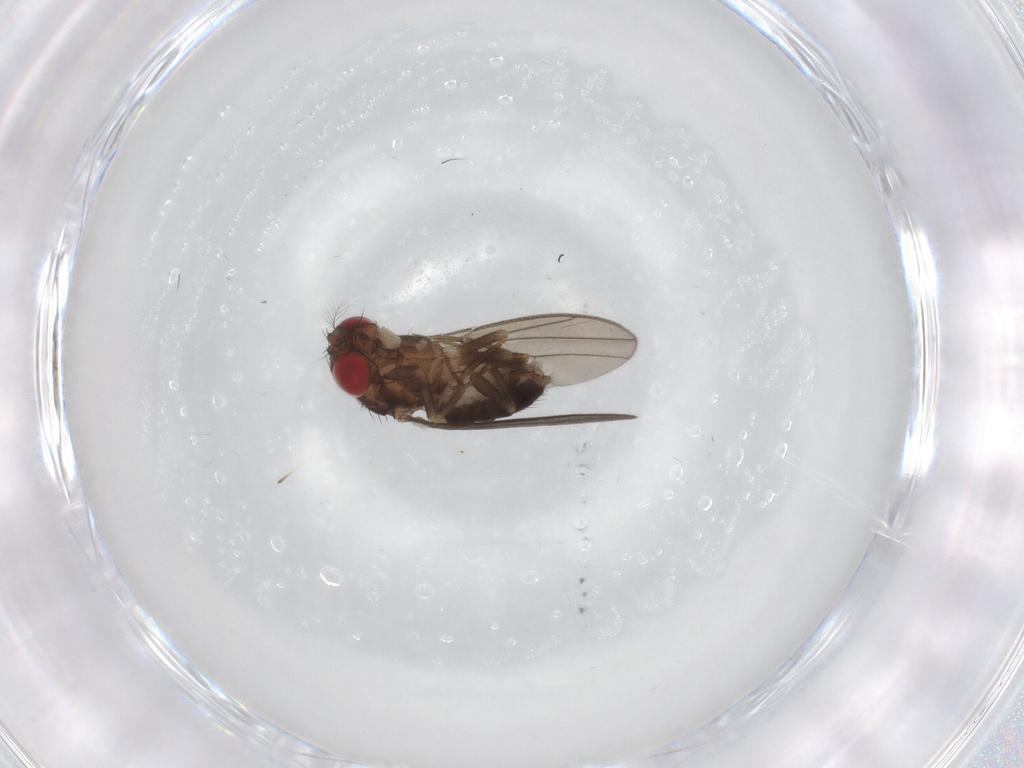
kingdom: Animalia
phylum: Arthropoda
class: Insecta
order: Diptera
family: Drosophilidae
